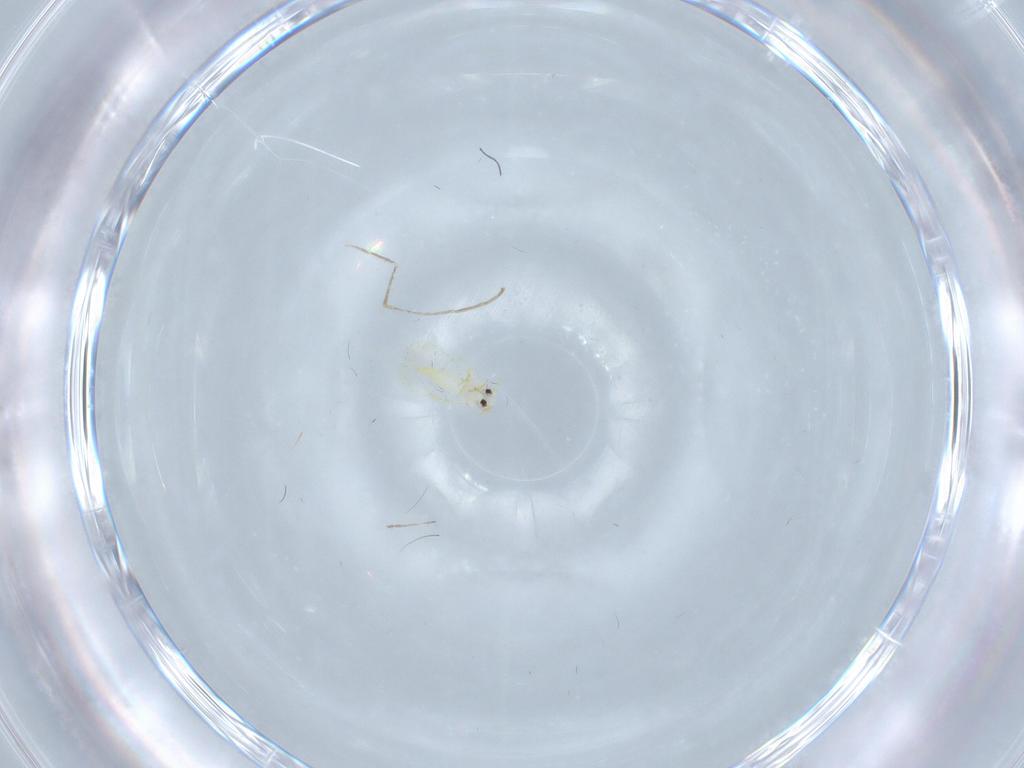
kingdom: Animalia
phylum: Arthropoda
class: Insecta
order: Hemiptera
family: Aleyrodidae
